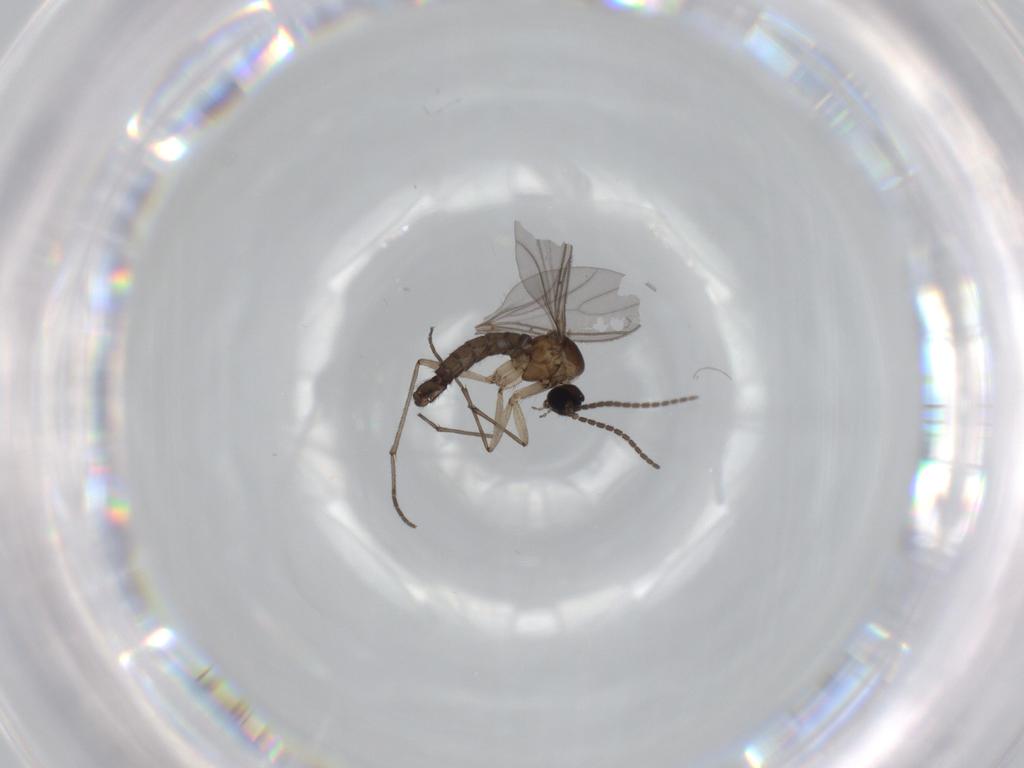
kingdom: Animalia
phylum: Arthropoda
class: Insecta
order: Diptera
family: Sciaridae
